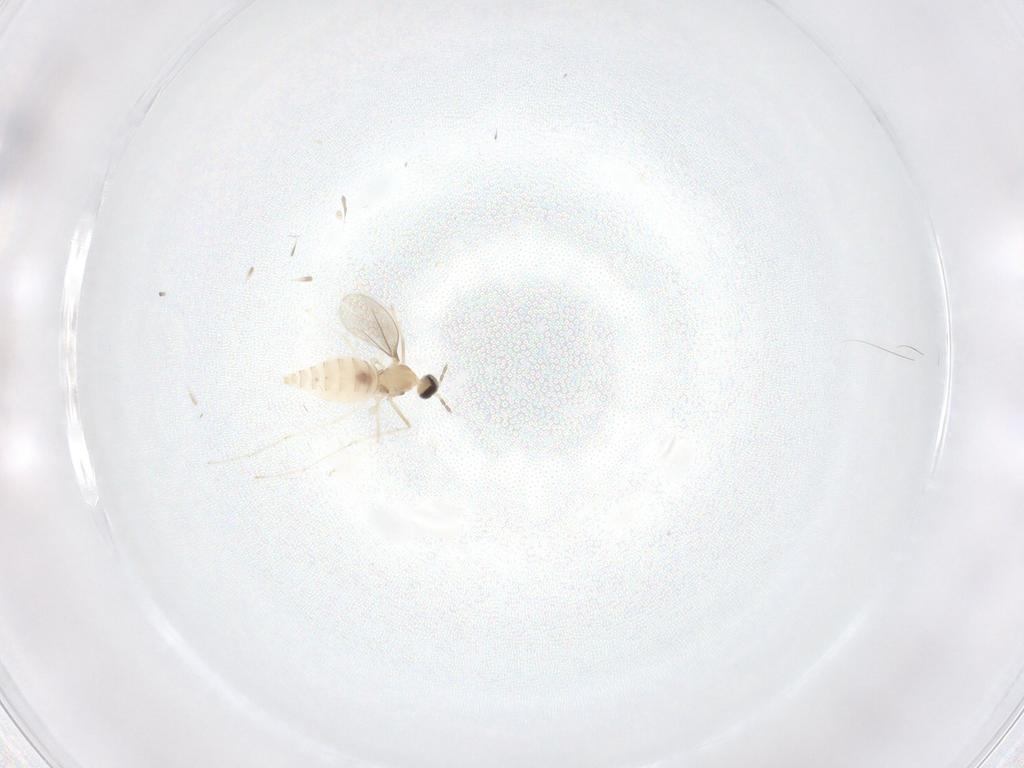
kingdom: Animalia
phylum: Arthropoda
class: Insecta
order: Diptera
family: Cecidomyiidae
